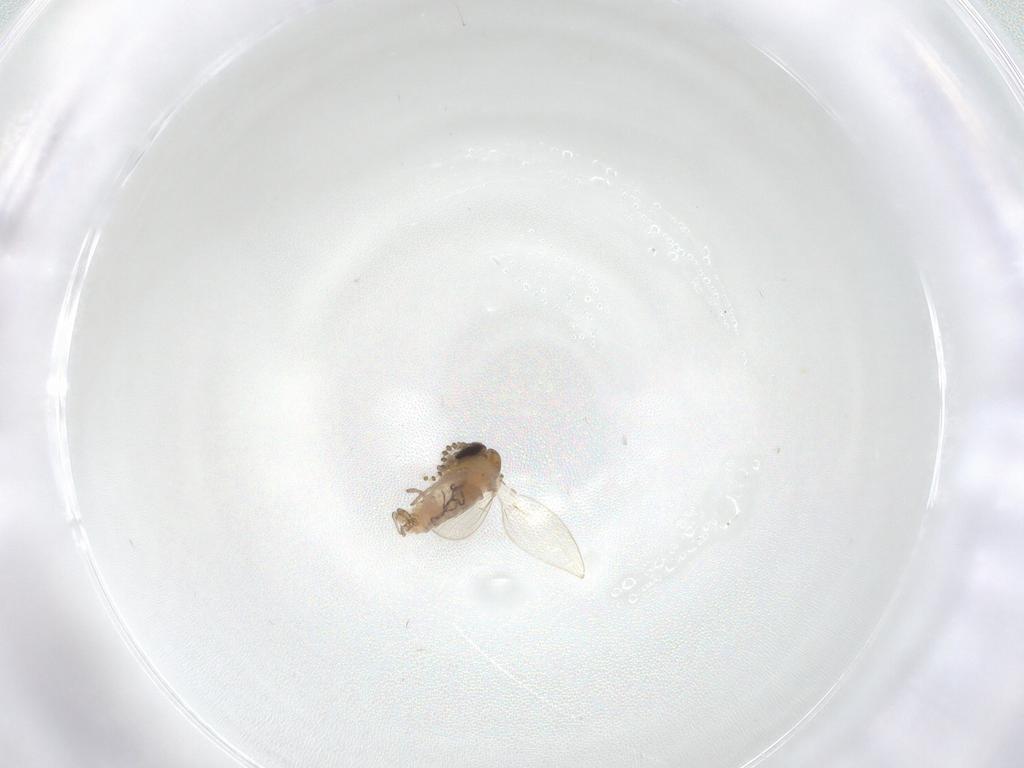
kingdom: Animalia
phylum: Arthropoda
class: Insecta
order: Diptera
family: Psychodidae
